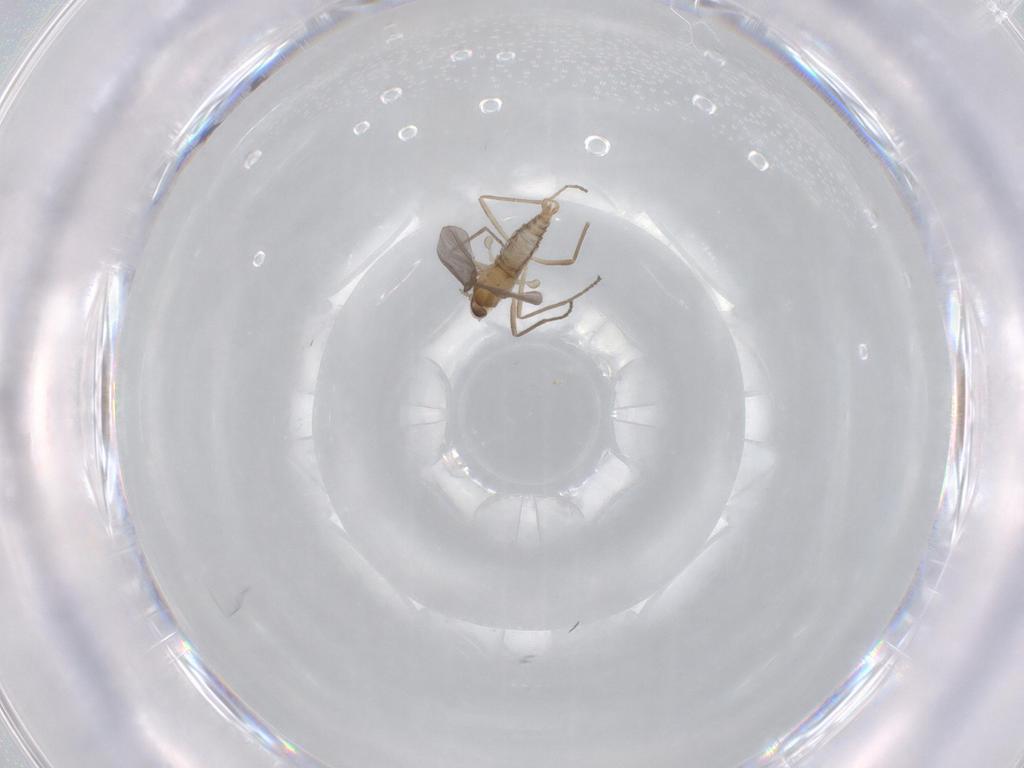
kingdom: Animalia
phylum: Arthropoda
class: Insecta
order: Diptera
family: Cecidomyiidae
